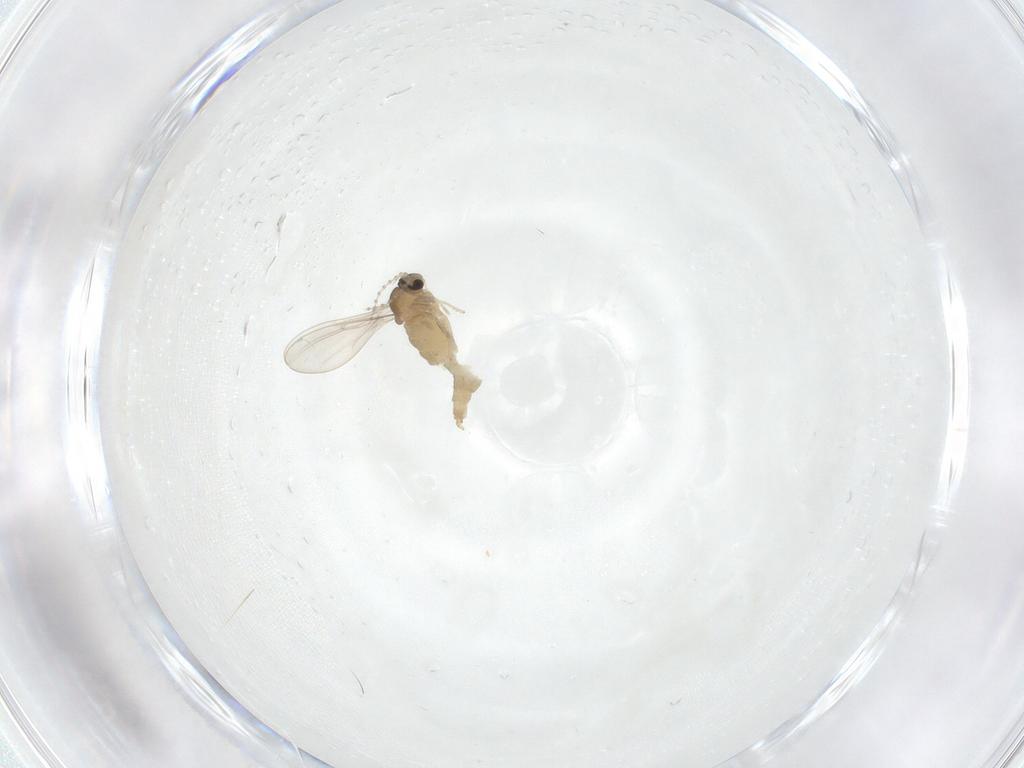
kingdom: Animalia
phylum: Arthropoda
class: Insecta
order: Diptera
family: Cecidomyiidae
